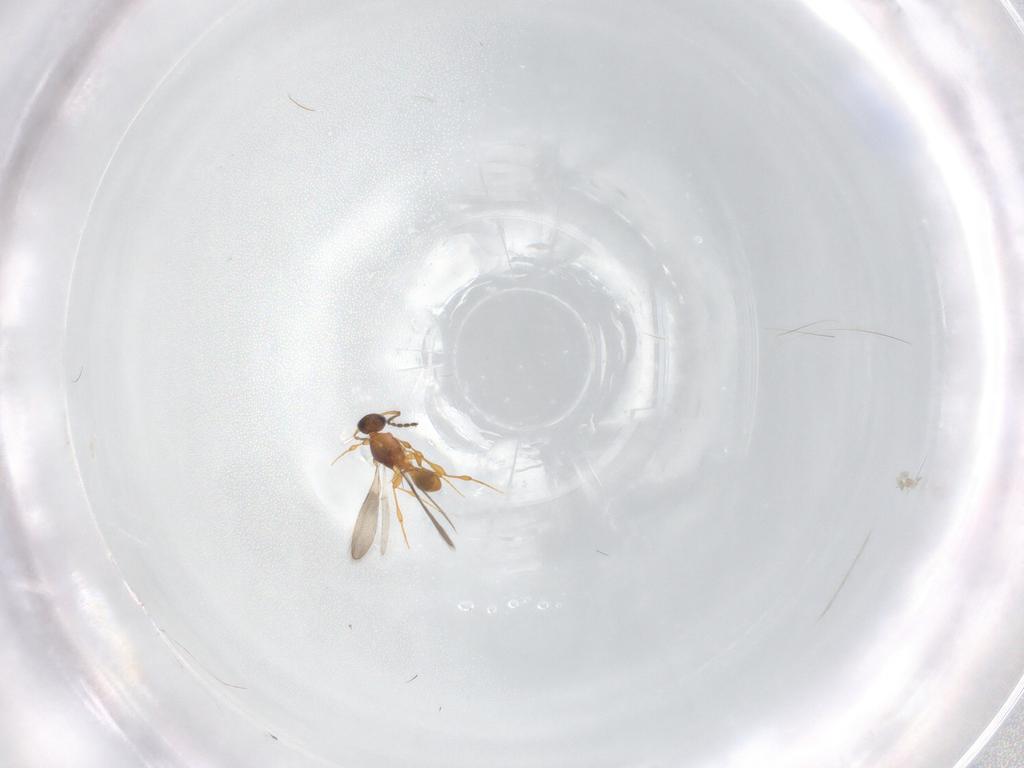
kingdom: Animalia
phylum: Arthropoda
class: Insecta
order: Hymenoptera
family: Platygastridae
